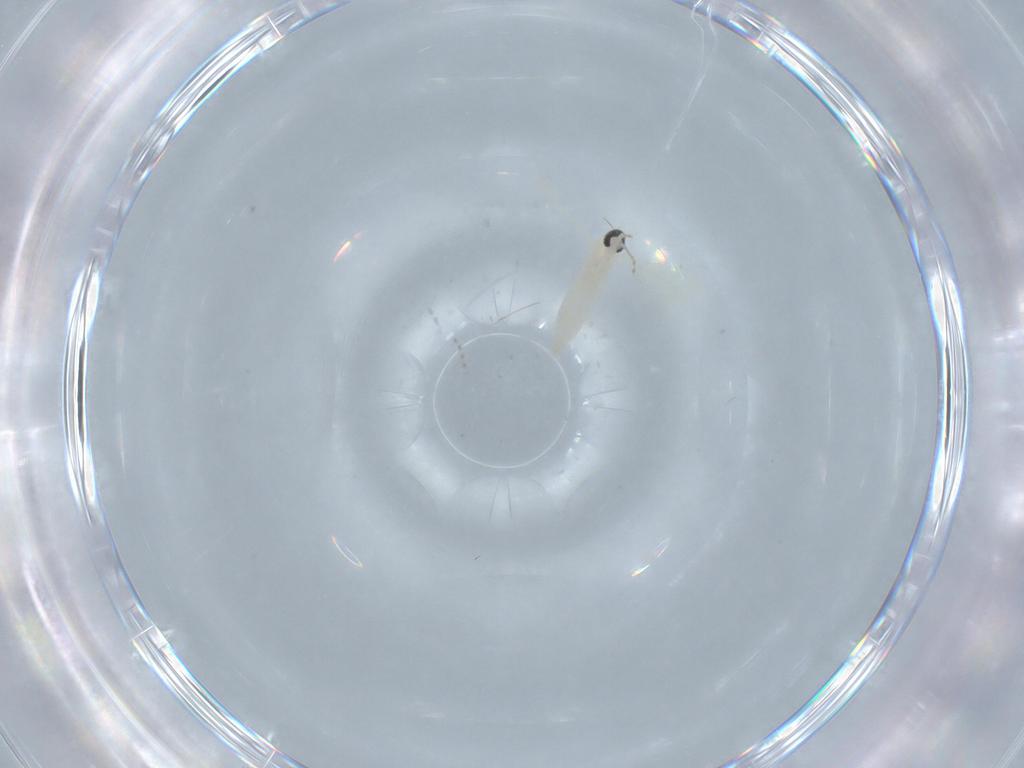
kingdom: Animalia
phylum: Arthropoda
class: Insecta
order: Diptera
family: Cecidomyiidae
